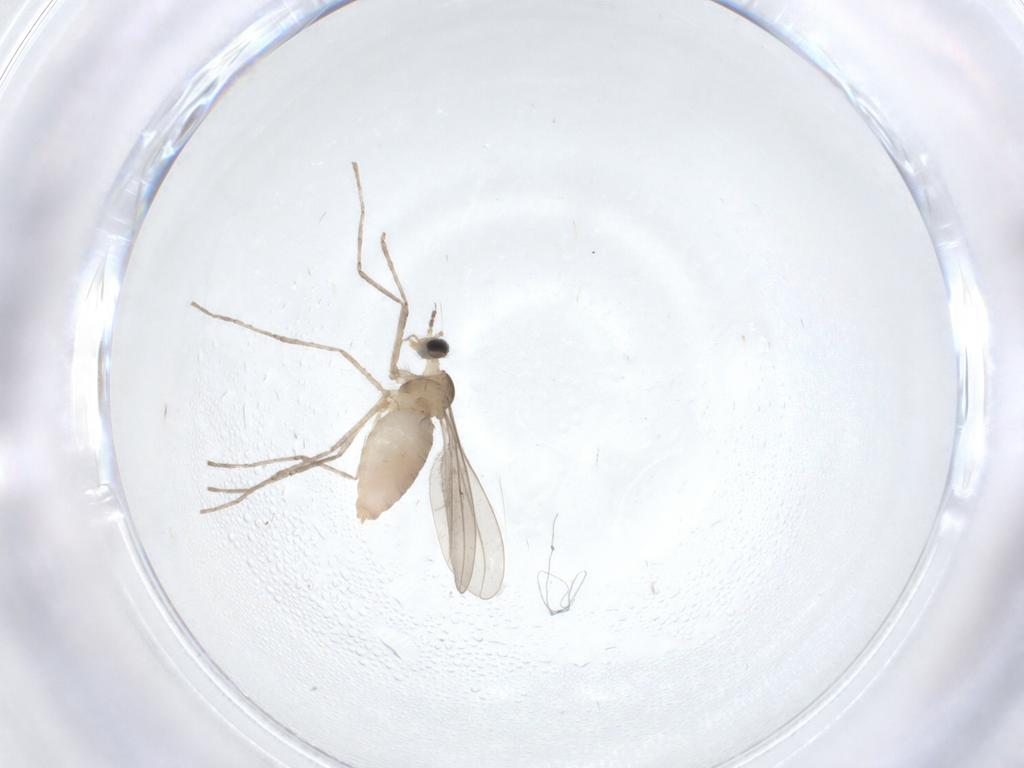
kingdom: Animalia
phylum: Arthropoda
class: Insecta
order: Diptera
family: Cecidomyiidae
